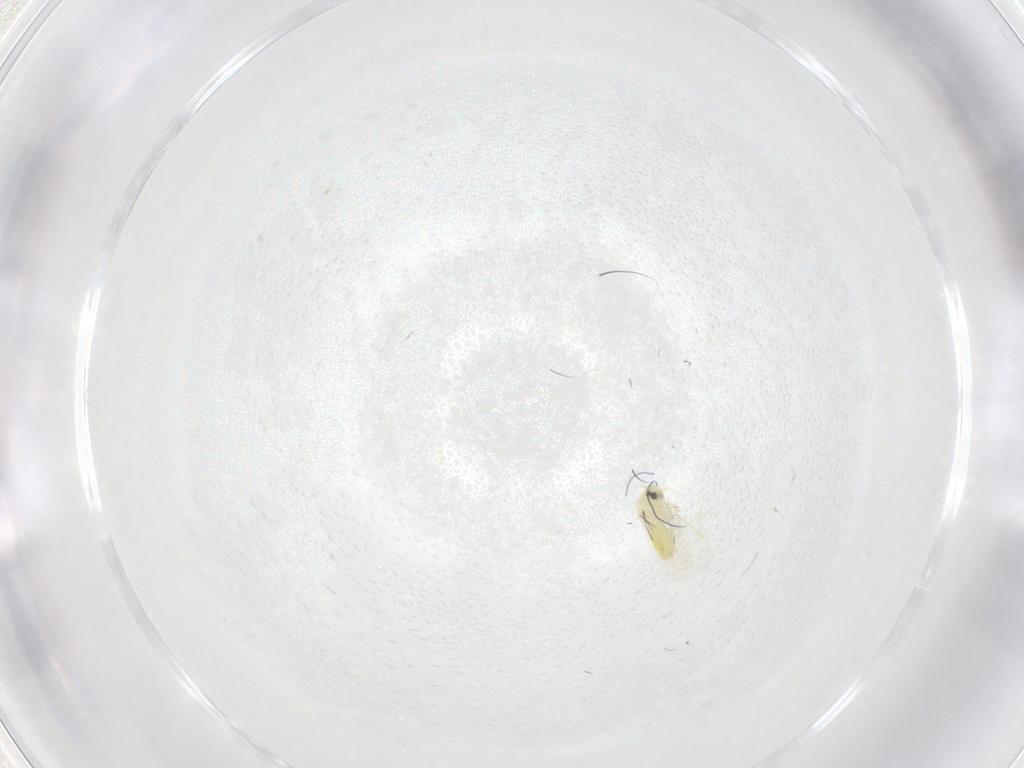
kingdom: Animalia
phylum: Arthropoda
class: Insecta
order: Hemiptera
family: Aleyrodidae
